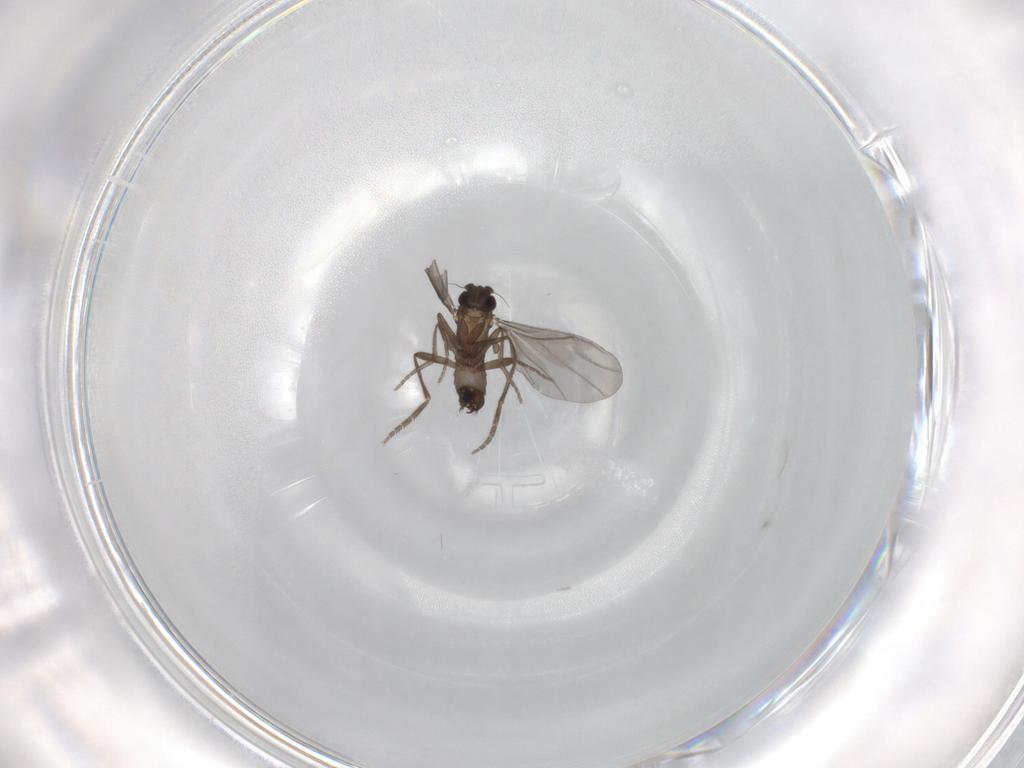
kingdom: Animalia
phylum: Arthropoda
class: Insecta
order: Diptera
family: Phoridae
